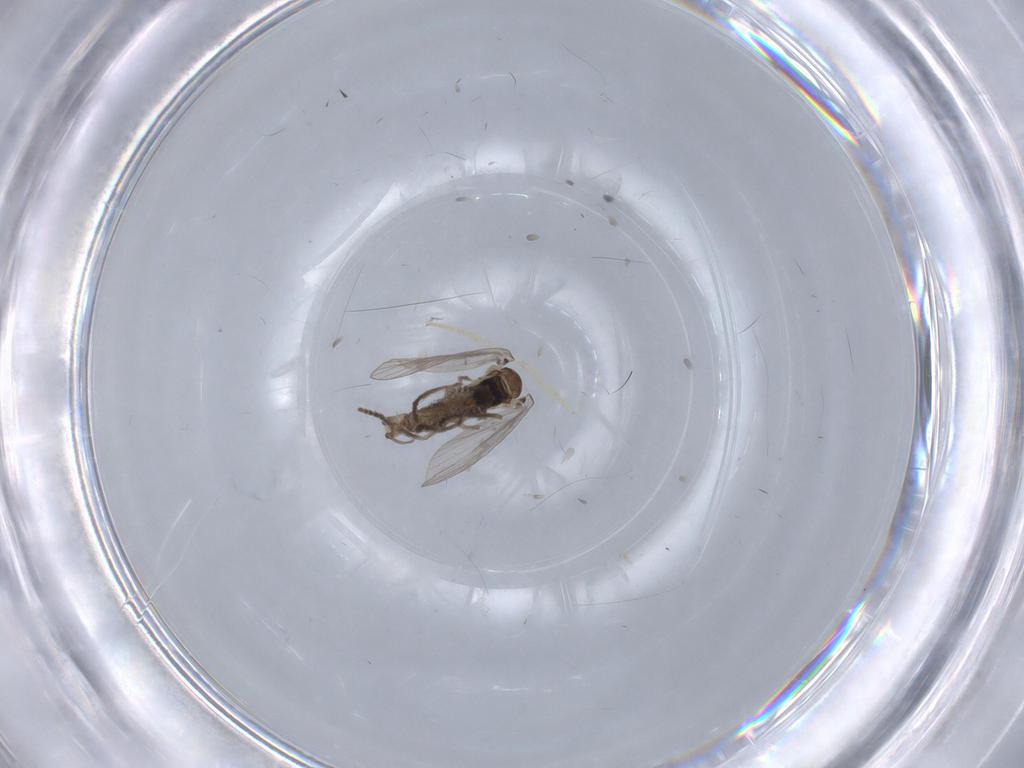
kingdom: Animalia
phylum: Arthropoda
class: Insecta
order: Diptera
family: Psychodidae
